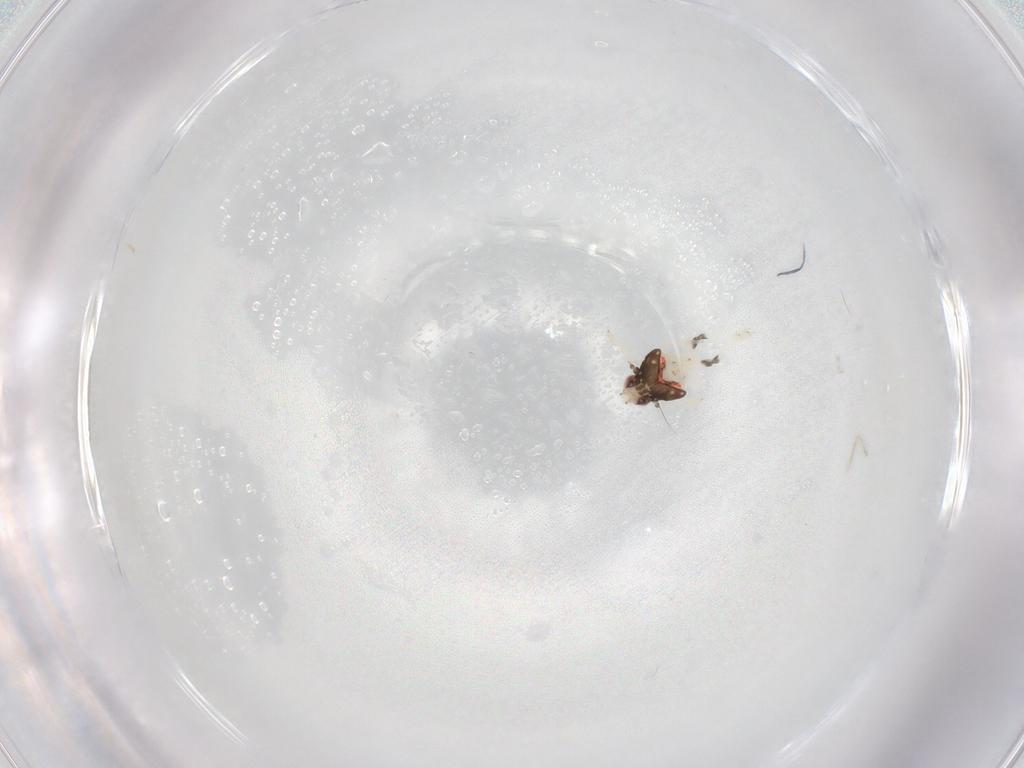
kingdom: Animalia
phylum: Arthropoda
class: Insecta
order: Hemiptera
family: Nogodinidae
